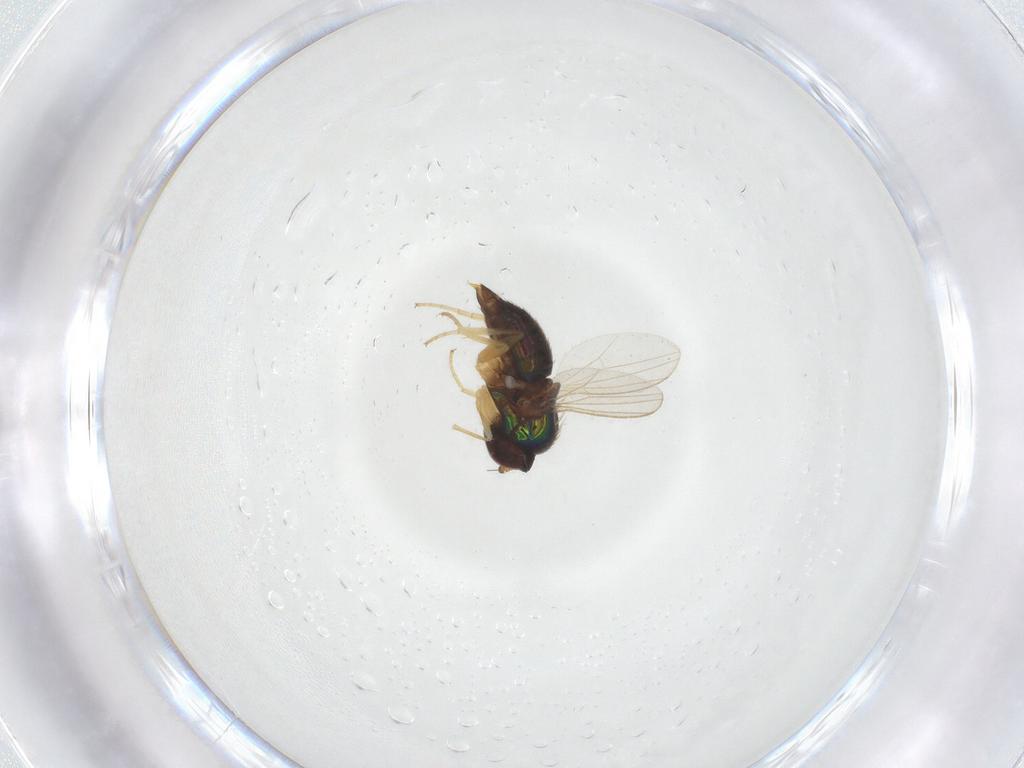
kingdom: Animalia
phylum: Arthropoda
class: Insecta
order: Diptera
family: Dolichopodidae
